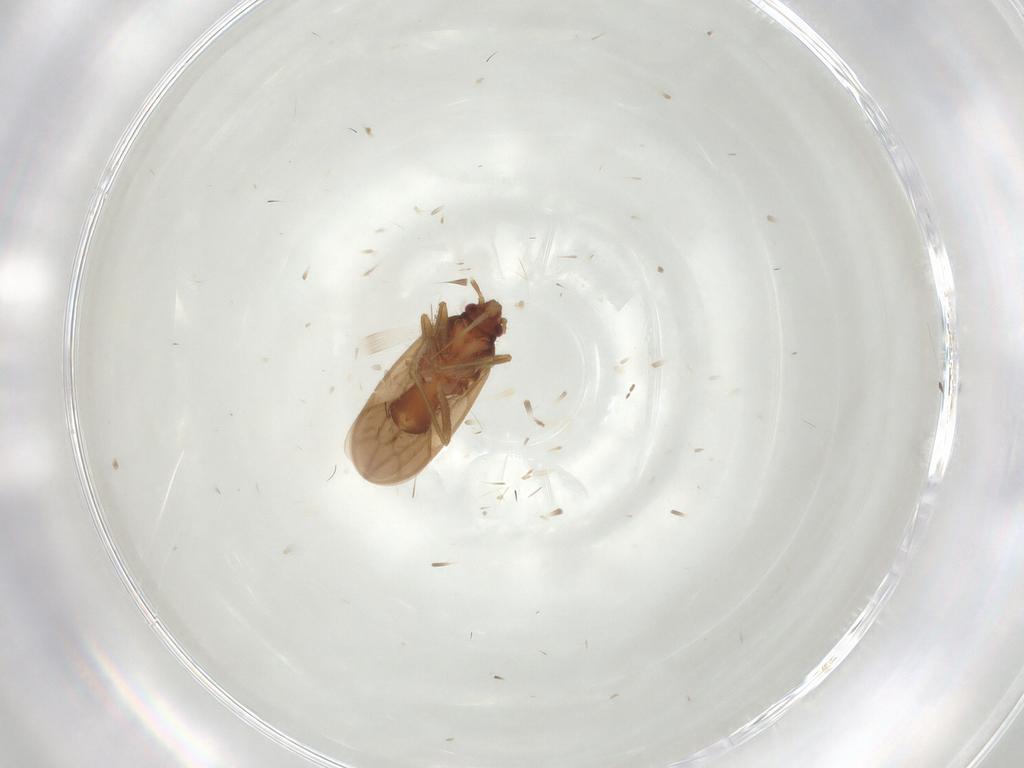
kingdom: Animalia
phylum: Arthropoda
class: Insecta
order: Hemiptera
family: Ceratocombidae
